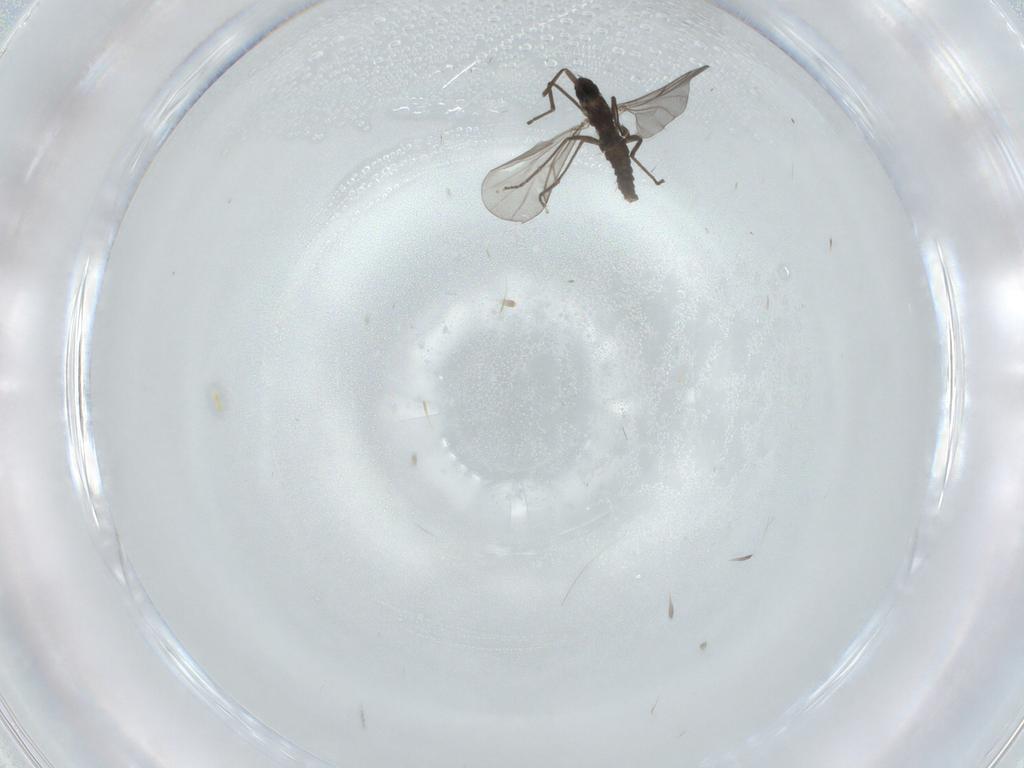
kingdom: Animalia
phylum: Arthropoda
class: Insecta
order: Diptera
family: Cecidomyiidae
